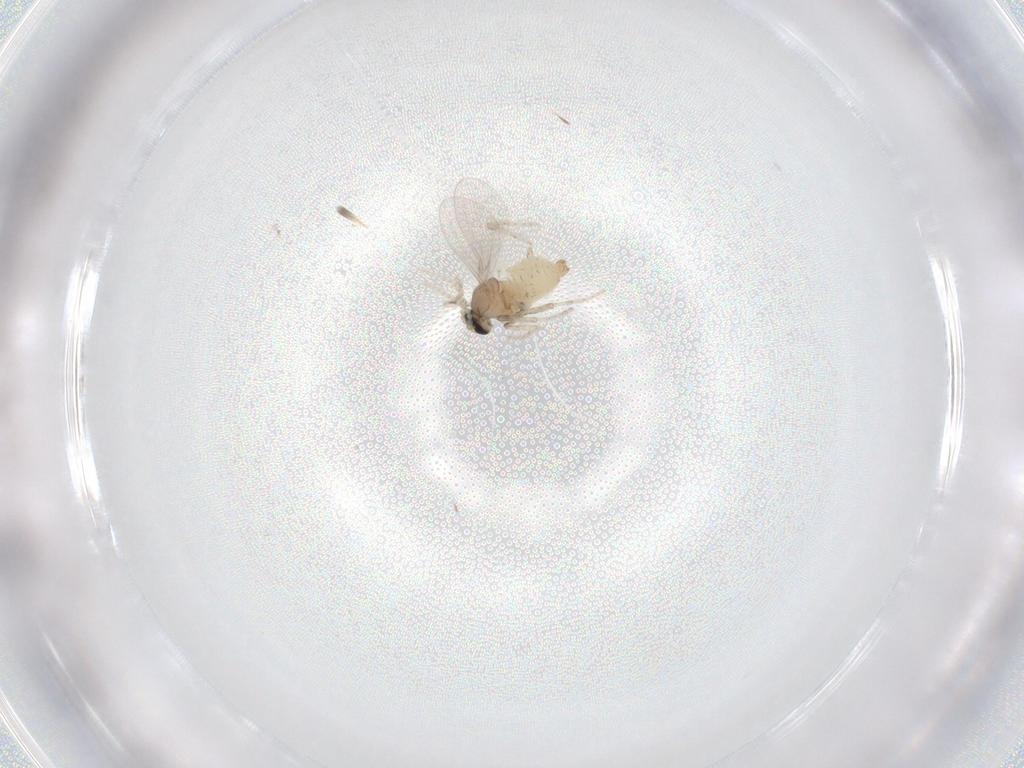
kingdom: Animalia
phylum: Arthropoda
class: Insecta
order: Diptera
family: Cecidomyiidae
